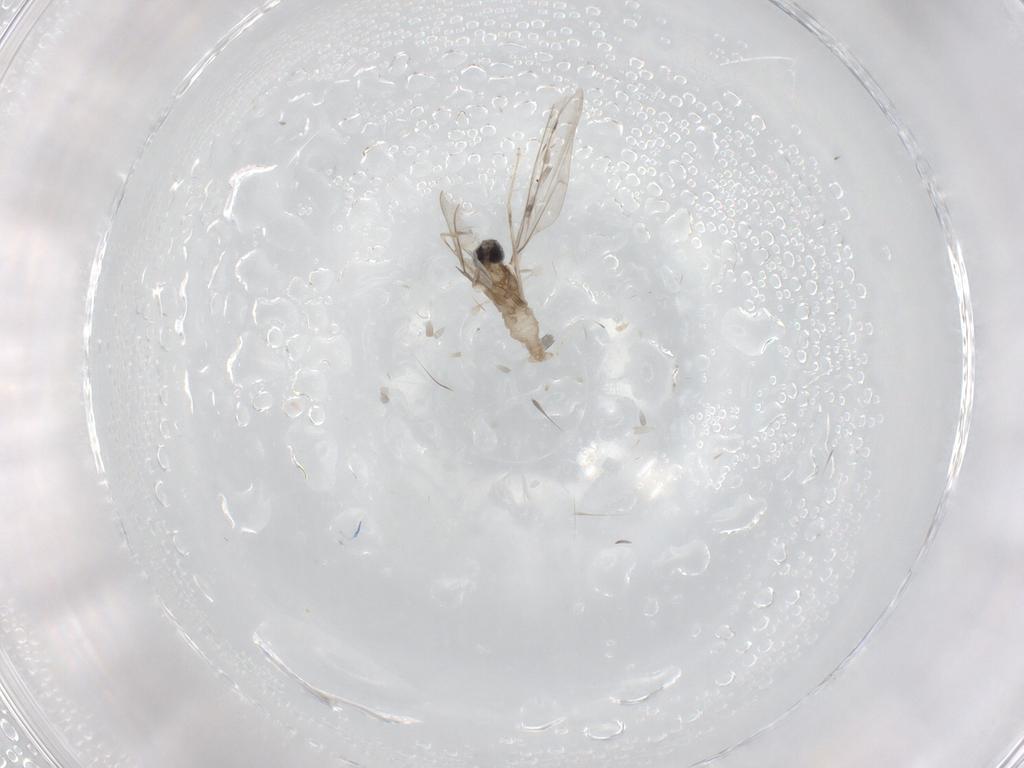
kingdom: Animalia
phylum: Arthropoda
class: Insecta
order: Diptera
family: Cecidomyiidae
